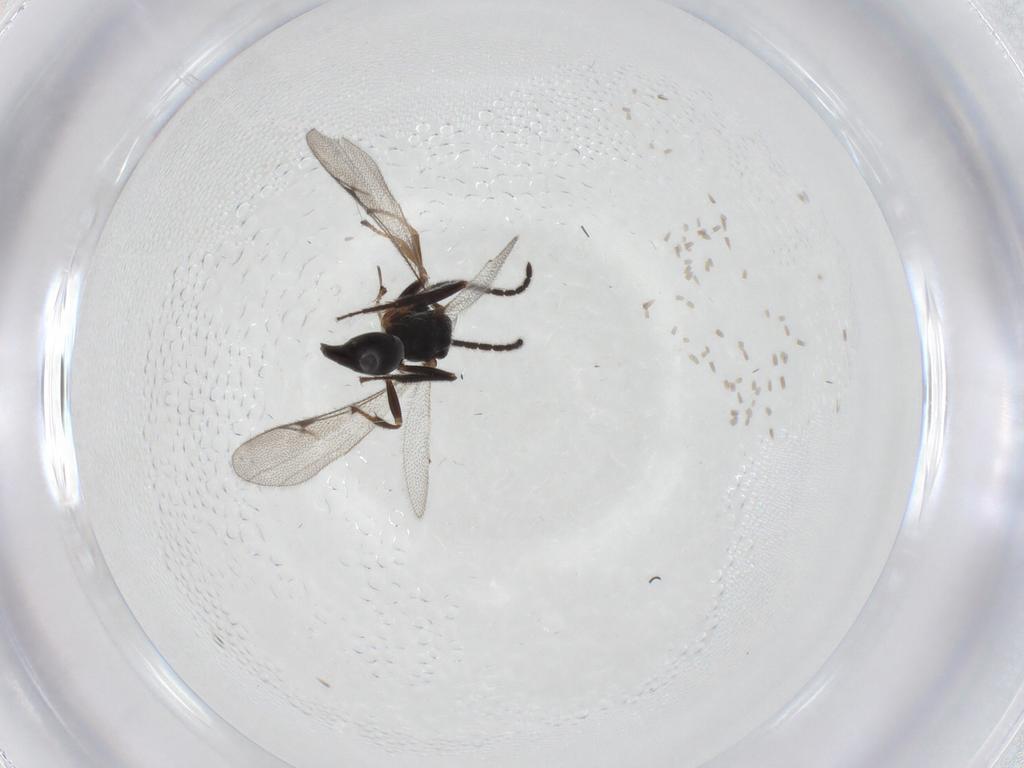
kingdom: Animalia
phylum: Arthropoda
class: Insecta
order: Hymenoptera
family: Proctotrupidae
